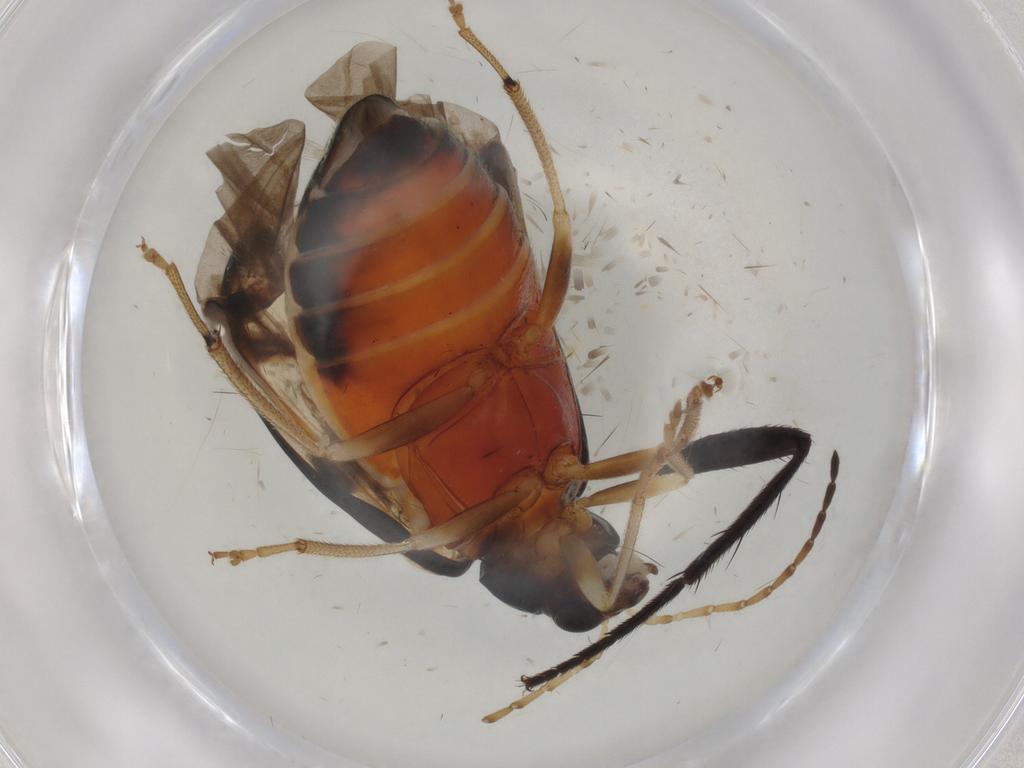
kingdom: Animalia
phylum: Arthropoda
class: Insecta
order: Coleoptera
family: Chrysomelidae
